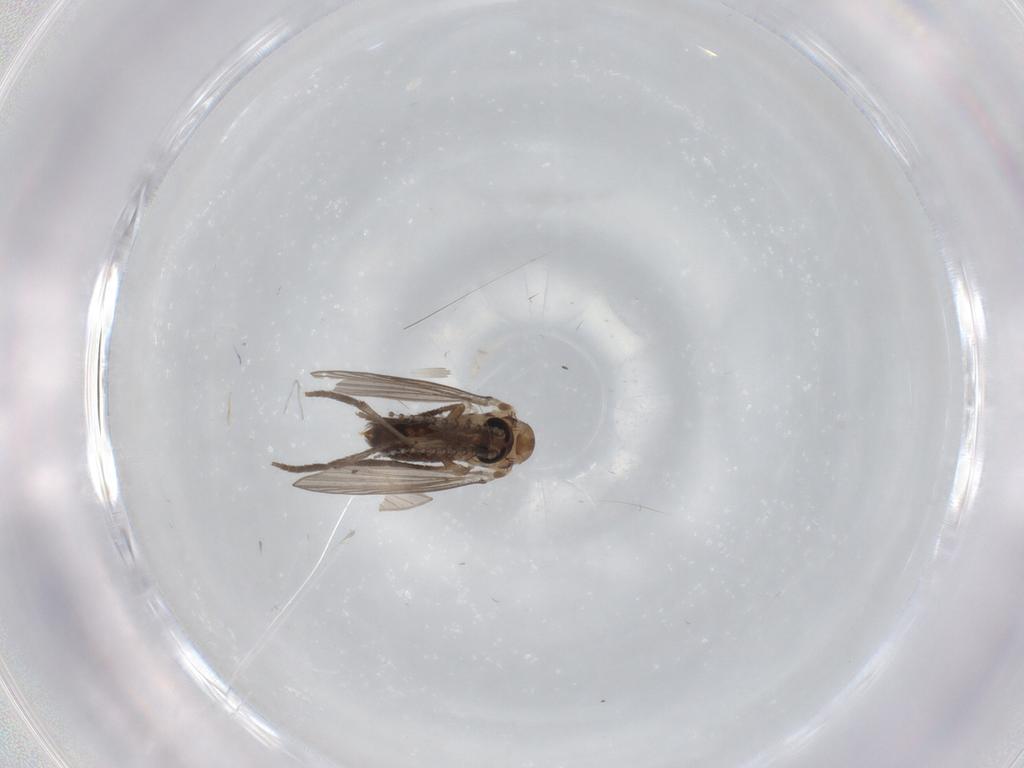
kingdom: Animalia
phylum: Arthropoda
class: Insecta
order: Diptera
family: Psychodidae
